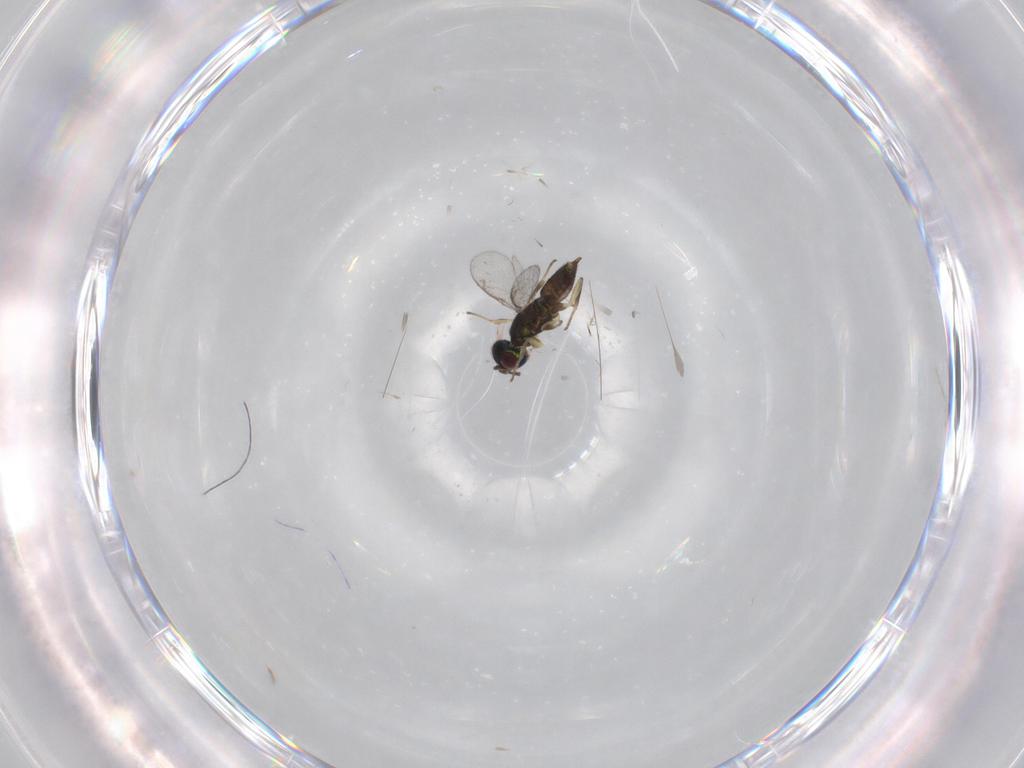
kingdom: Animalia
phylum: Arthropoda
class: Insecta
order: Hymenoptera
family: Eupelmidae
